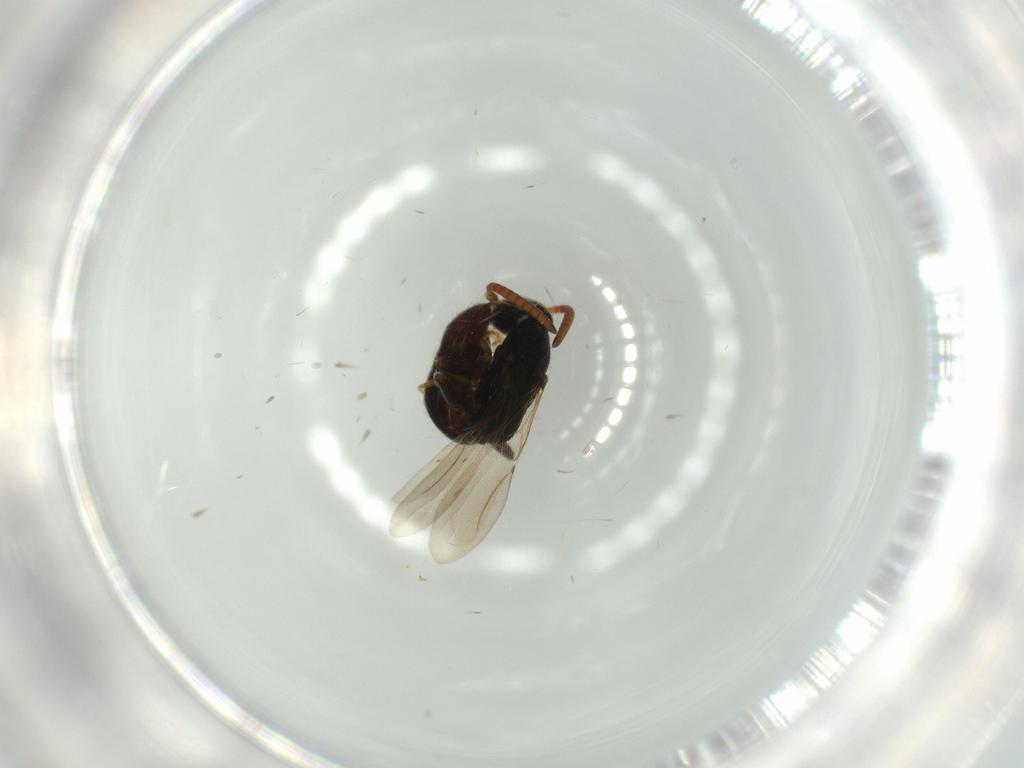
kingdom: Animalia
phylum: Arthropoda
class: Insecta
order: Hymenoptera
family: Bethylidae
